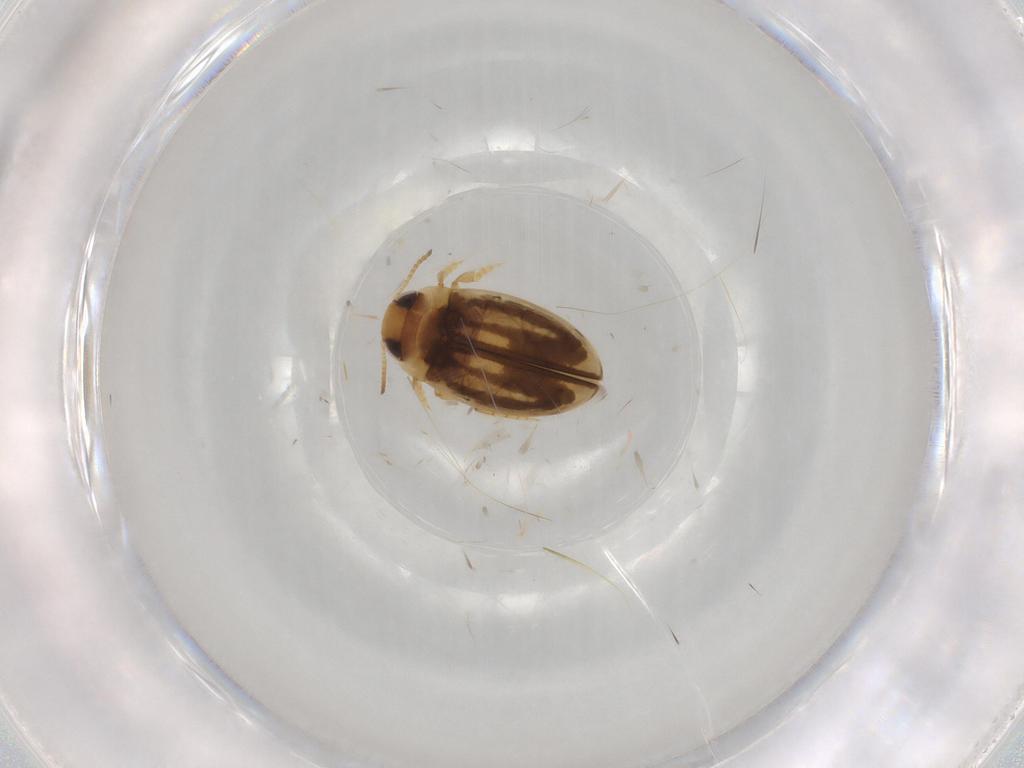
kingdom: Animalia
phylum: Arthropoda
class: Insecta
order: Coleoptera
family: Dytiscidae
